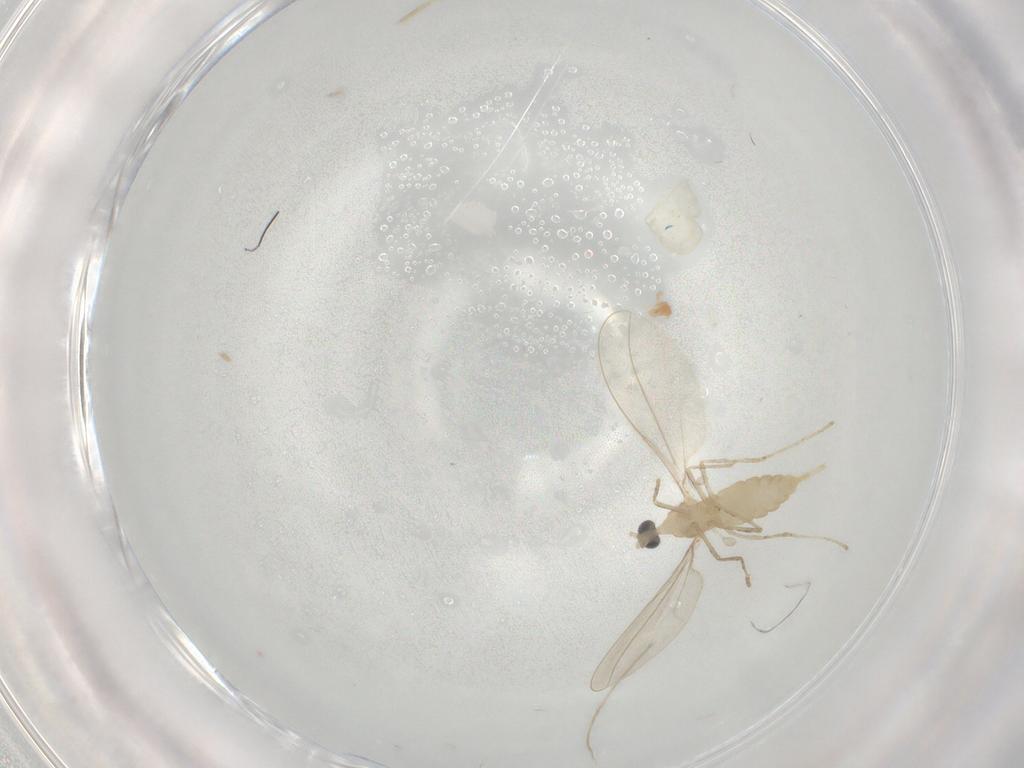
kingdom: Animalia
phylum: Arthropoda
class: Insecta
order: Diptera
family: Cecidomyiidae
